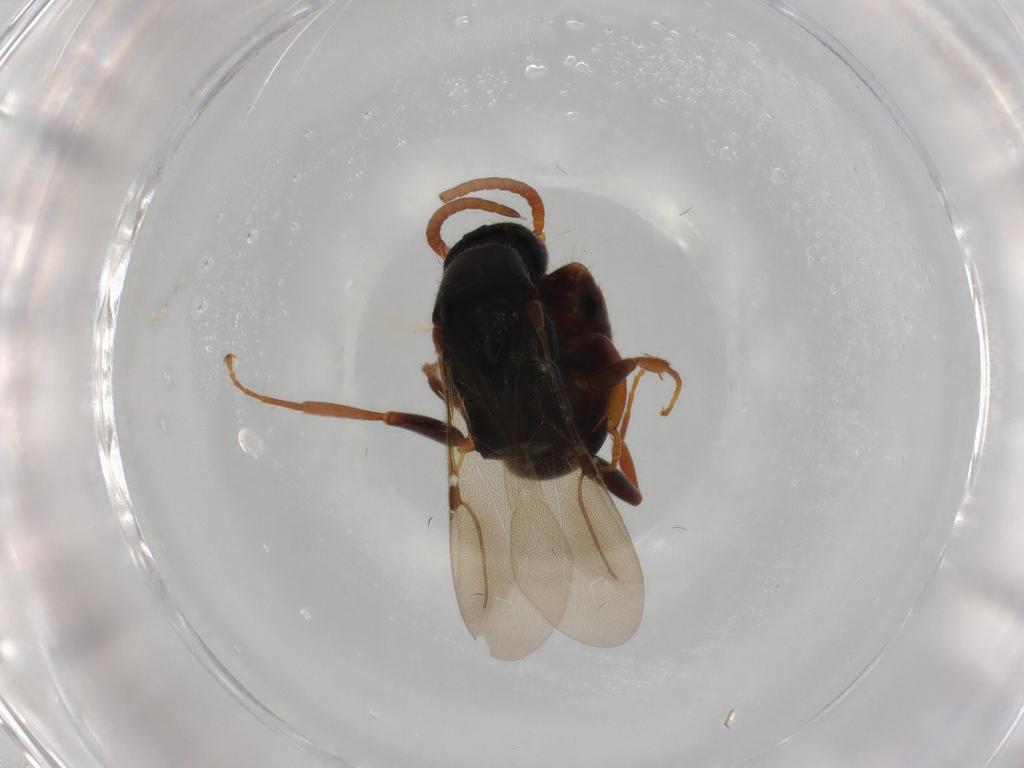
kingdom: Animalia
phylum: Arthropoda
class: Insecta
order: Hymenoptera
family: Bethylidae
